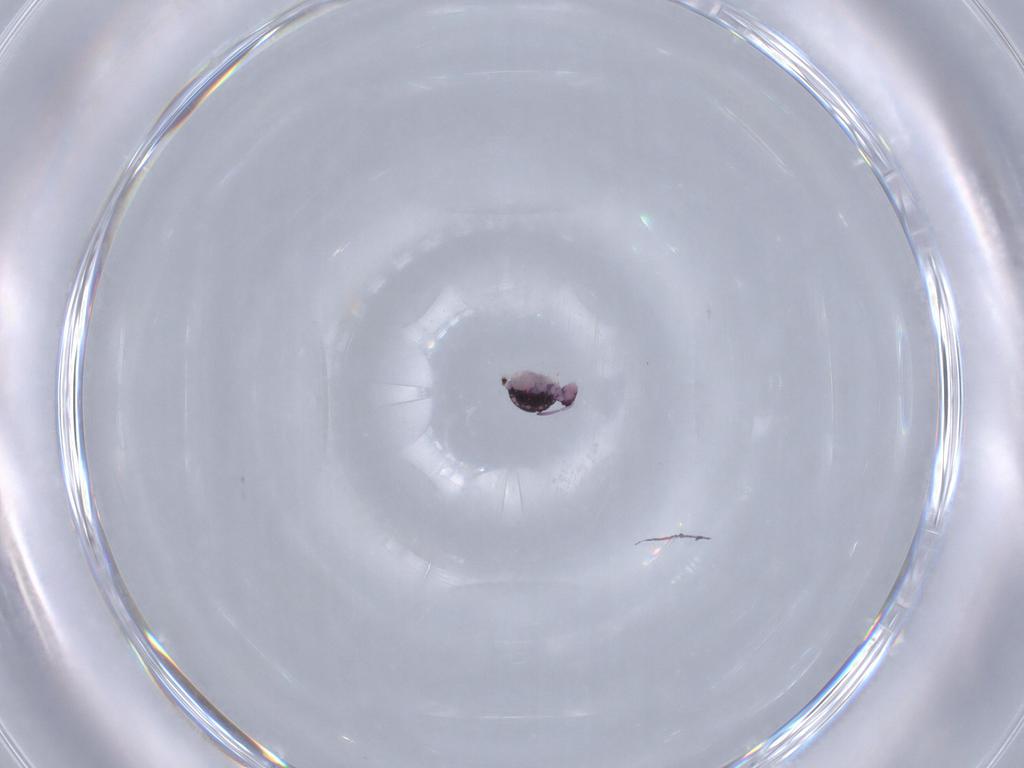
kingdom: Animalia
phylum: Arthropoda
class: Collembola
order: Symphypleona
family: Katiannidae
